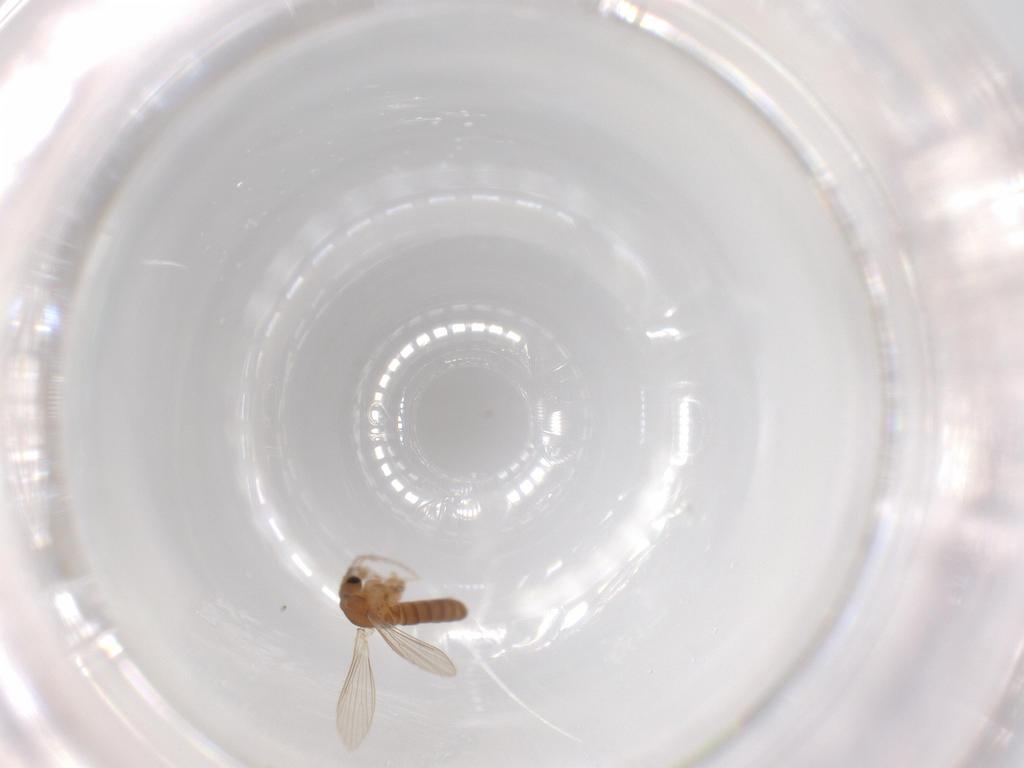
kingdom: Animalia
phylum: Arthropoda
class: Insecta
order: Diptera
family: Psychodidae
